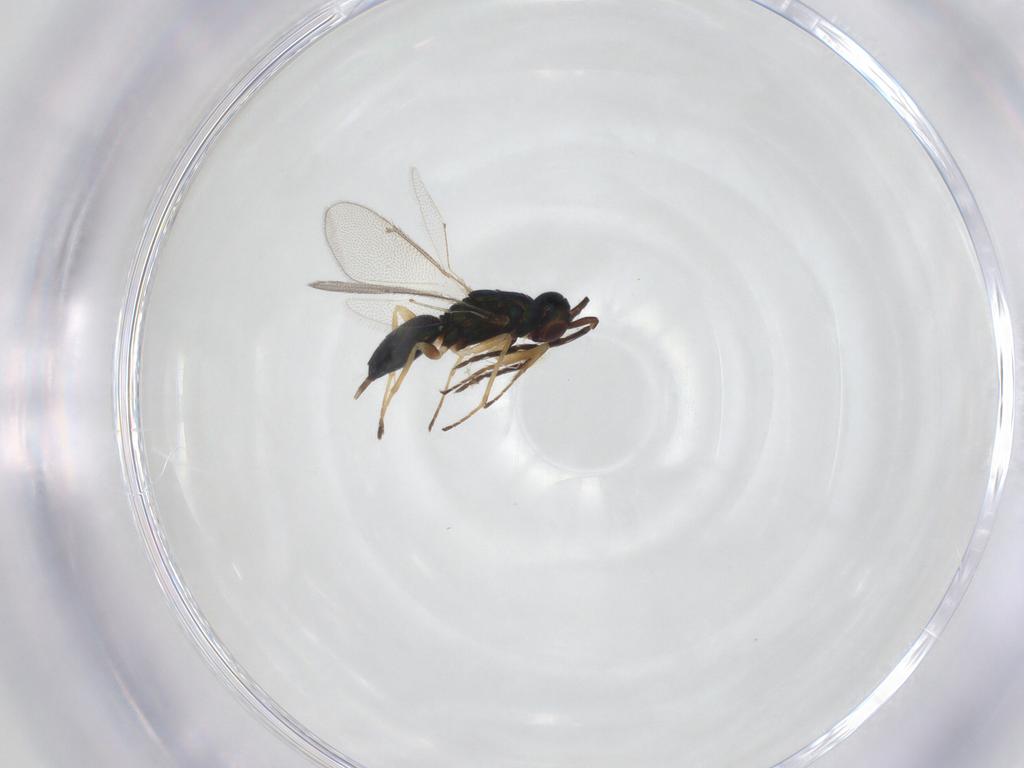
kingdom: Animalia
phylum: Arthropoda
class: Insecta
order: Hymenoptera
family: Eulophidae
